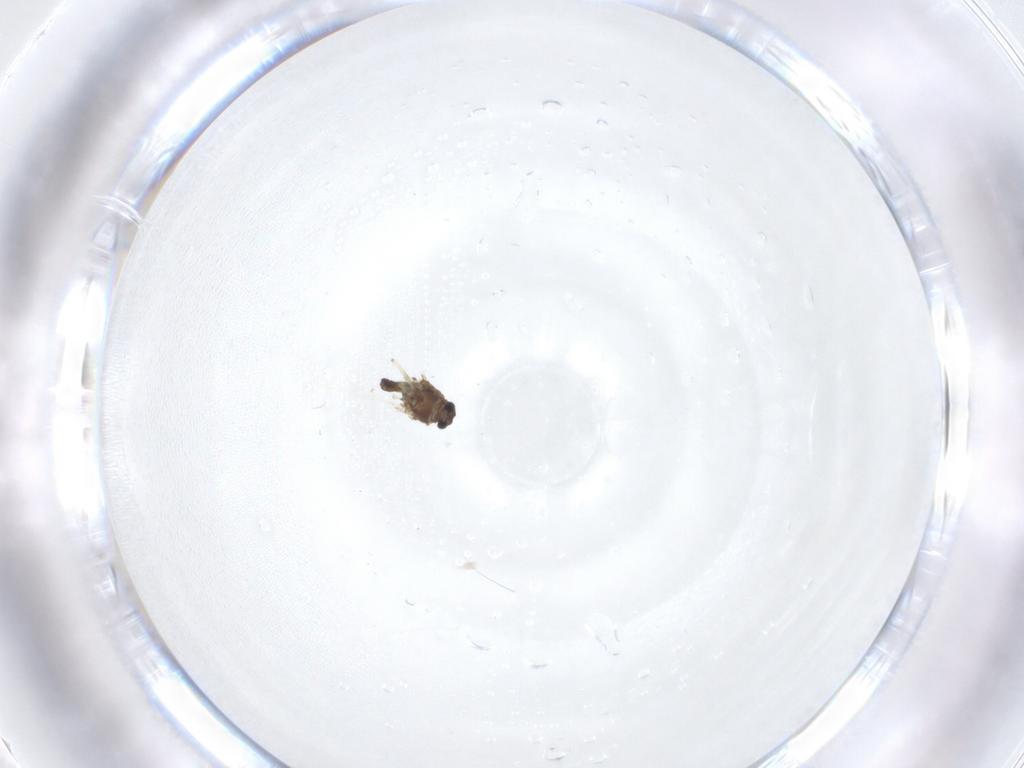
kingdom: Animalia
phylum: Arthropoda
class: Insecta
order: Diptera
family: Chironomidae
